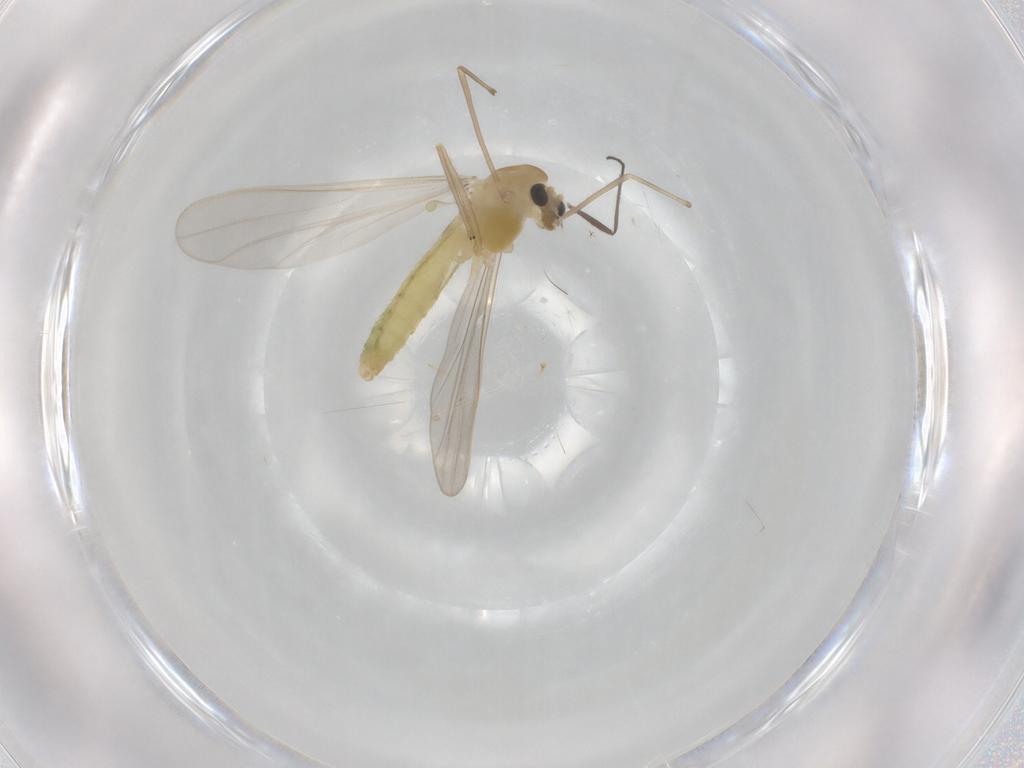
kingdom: Animalia
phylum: Arthropoda
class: Insecta
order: Diptera
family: Chironomidae
